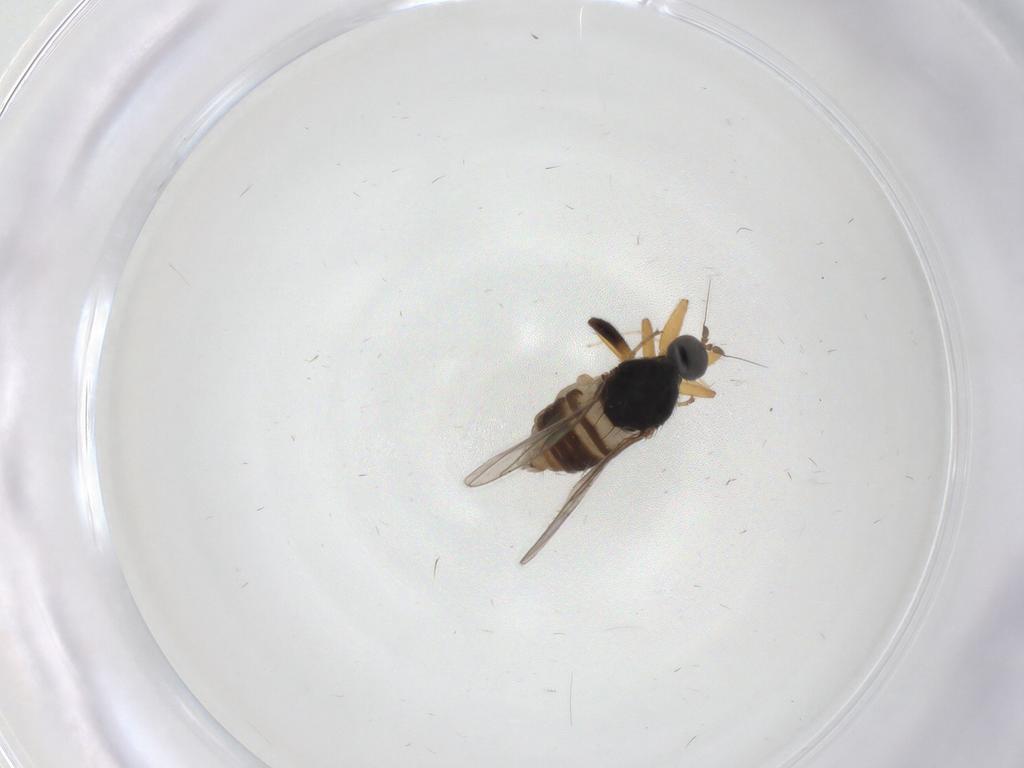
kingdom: Animalia
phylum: Arthropoda
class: Insecta
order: Diptera
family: Hybotidae
